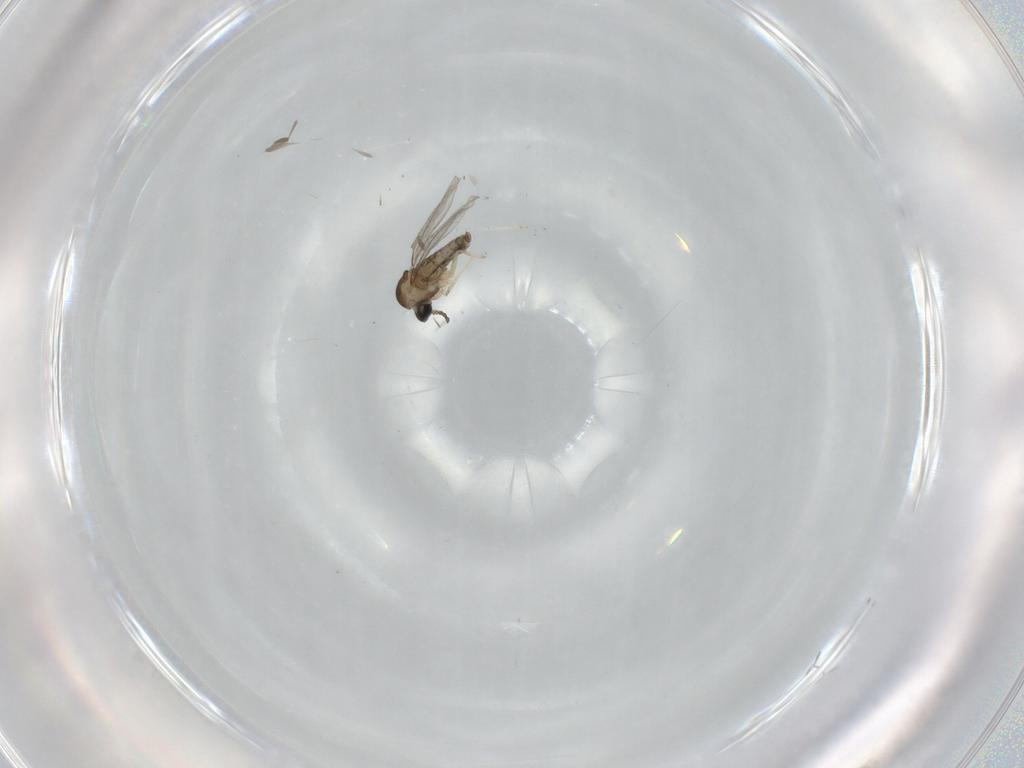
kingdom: Animalia
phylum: Arthropoda
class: Insecta
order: Diptera
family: Cecidomyiidae
